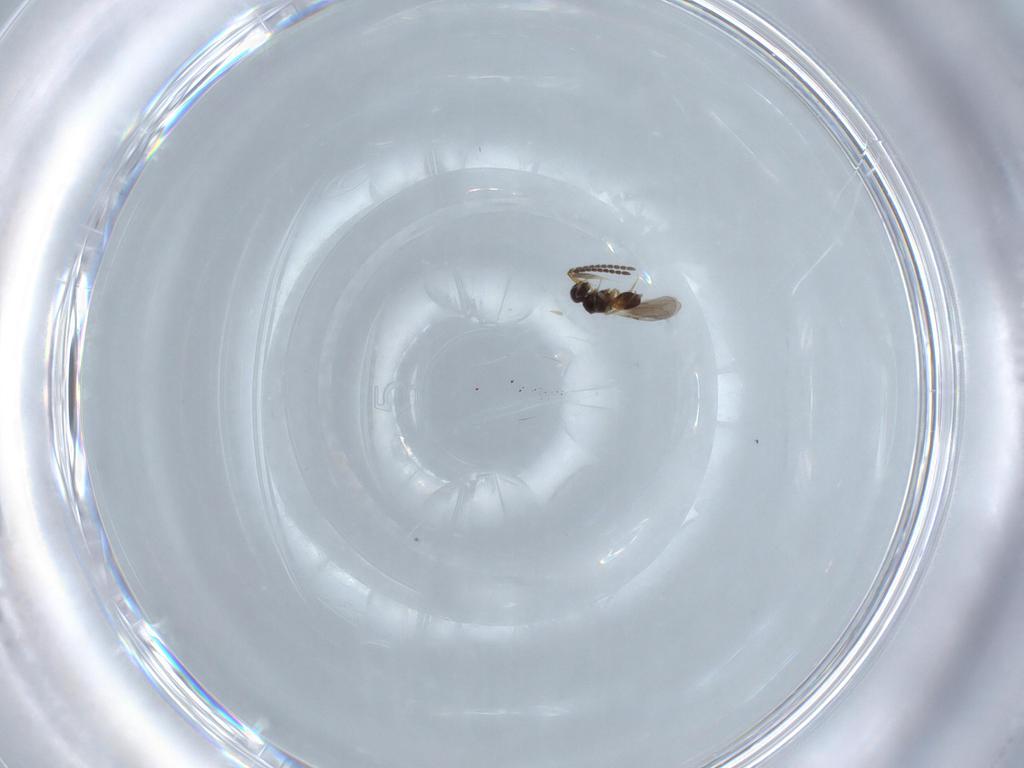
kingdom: Animalia
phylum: Arthropoda
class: Insecta
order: Hymenoptera
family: Ceraphronidae
